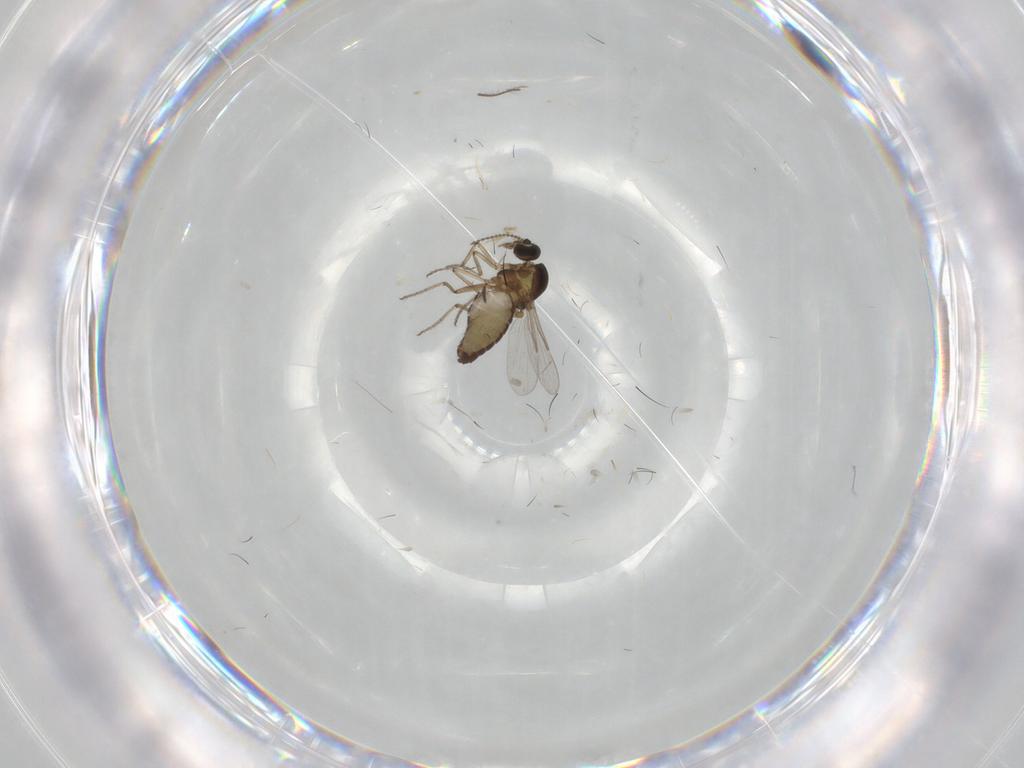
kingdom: Animalia
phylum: Arthropoda
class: Insecta
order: Diptera
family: Ceratopogonidae
